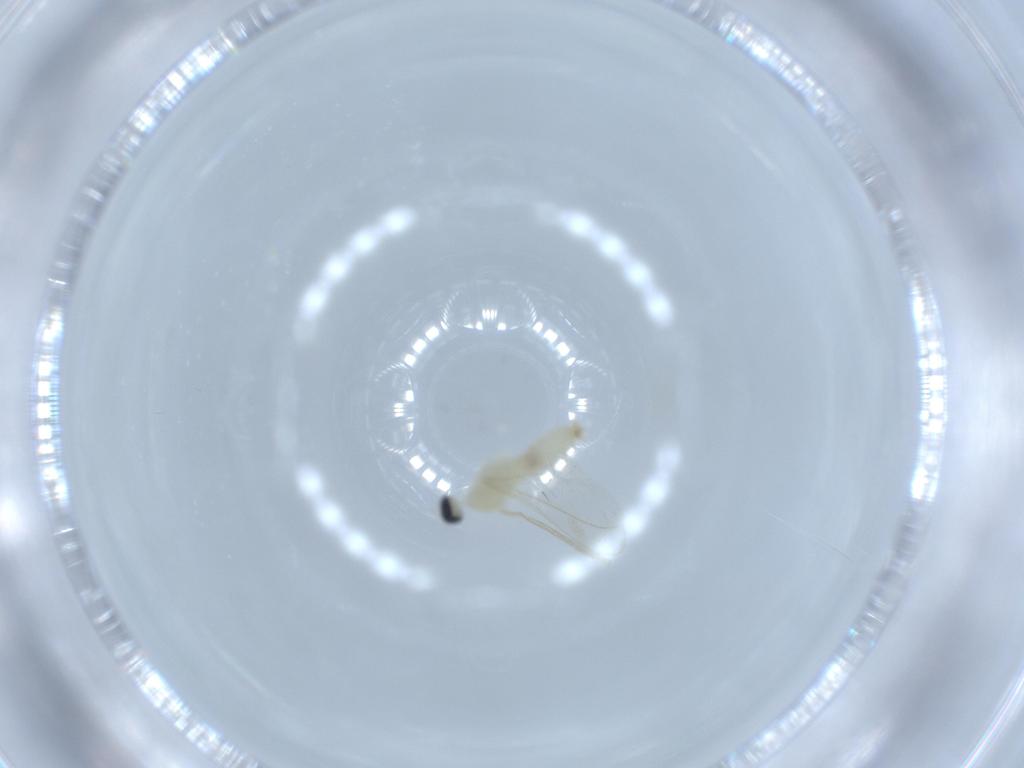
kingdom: Animalia
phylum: Arthropoda
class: Insecta
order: Diptera
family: Cecidomyiidae
